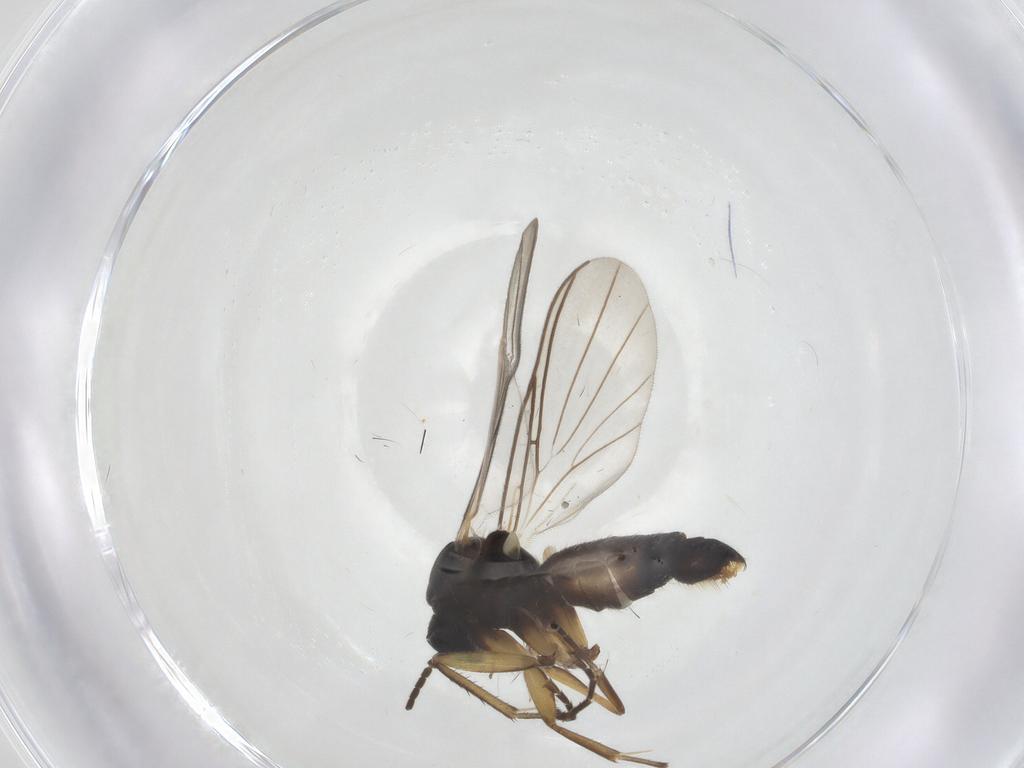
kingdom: Animalia
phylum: Arthropoda
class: Insecta
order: Diptera
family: Mycetophilidae
